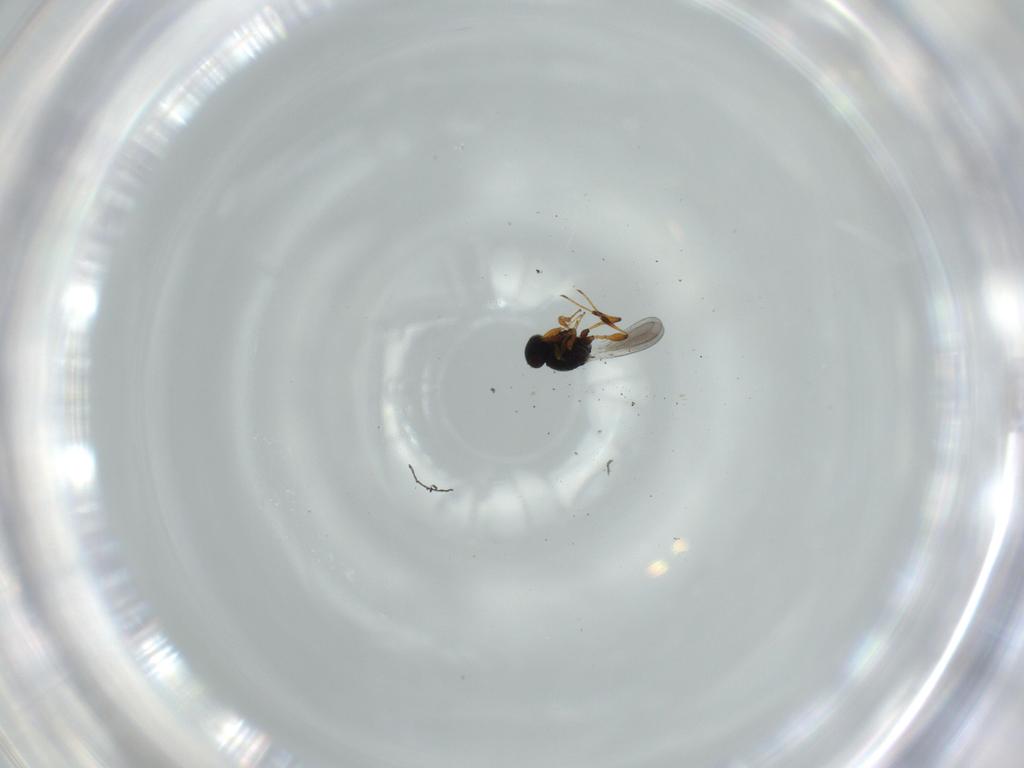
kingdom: Animalia
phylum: Arthropoda
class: Insecta
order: Hymenoptera
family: Platygastridae
